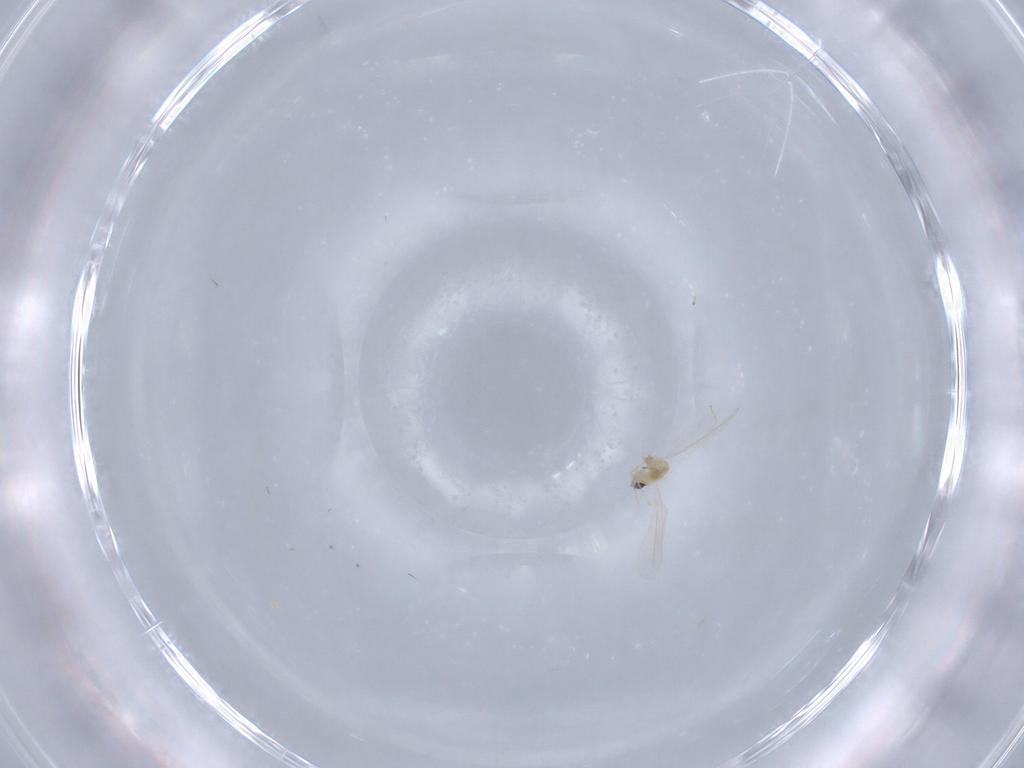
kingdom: Animalia
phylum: Arthropoda
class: Insecta
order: Diptera
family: Cecidomyiidae
